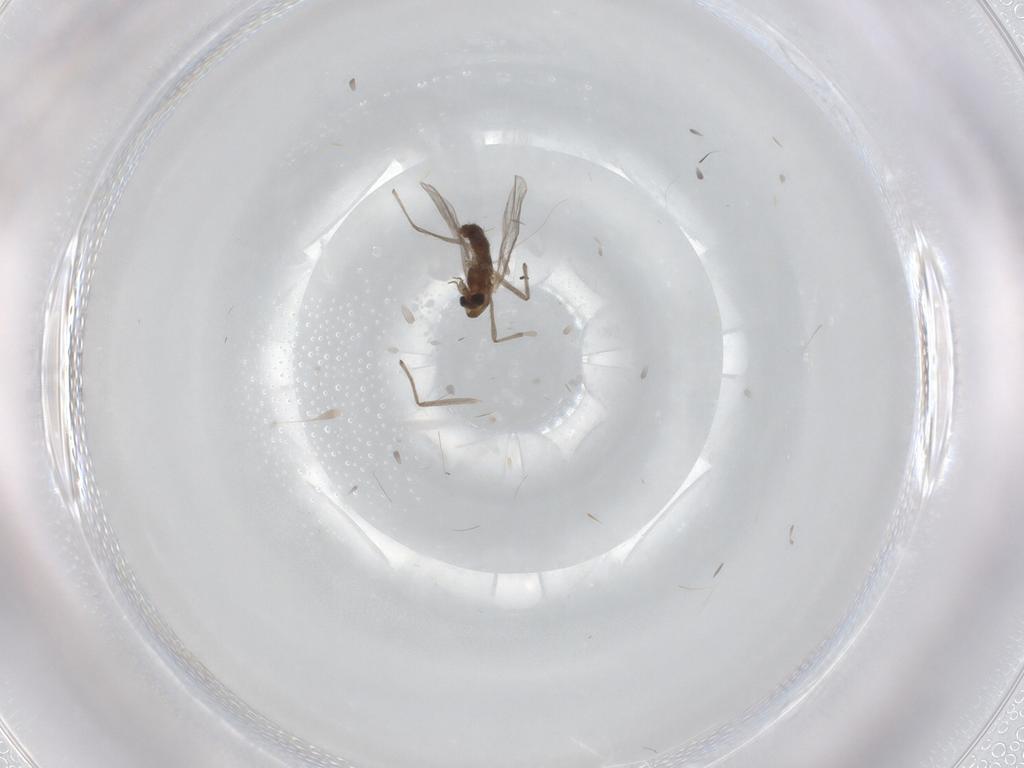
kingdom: Animalia
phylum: Arthropoda
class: Insecta
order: Diptera
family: Chironomidae
